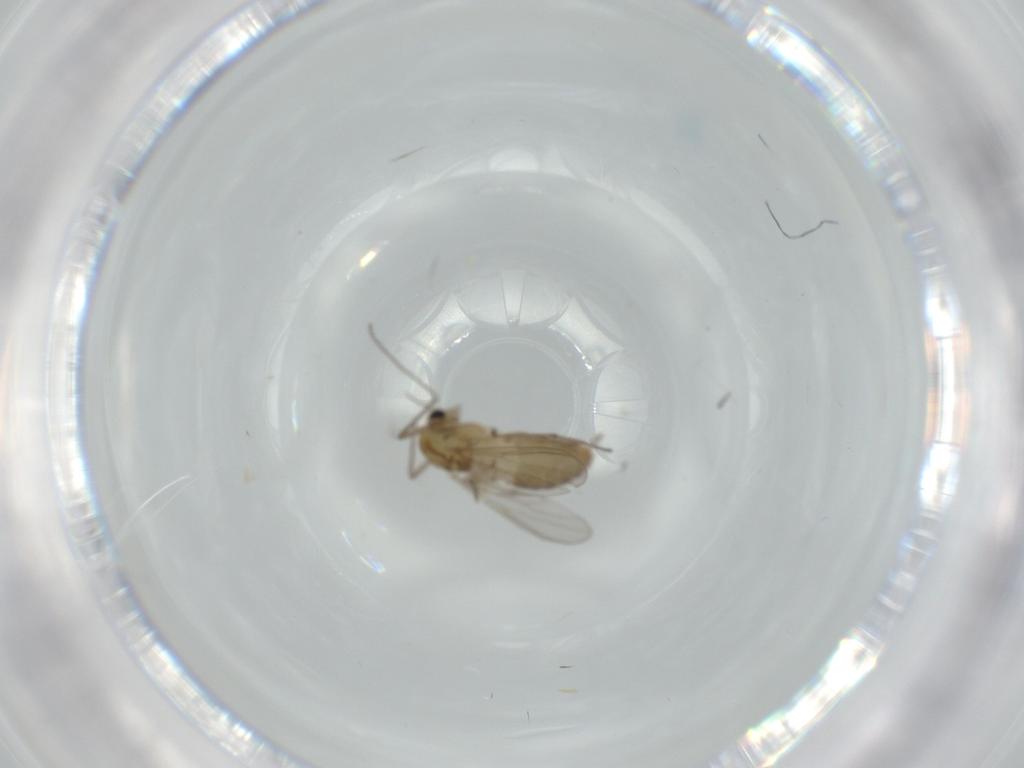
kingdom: Animalia
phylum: Arthropoda
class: Insecta
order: Diptera
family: Chironomidae
